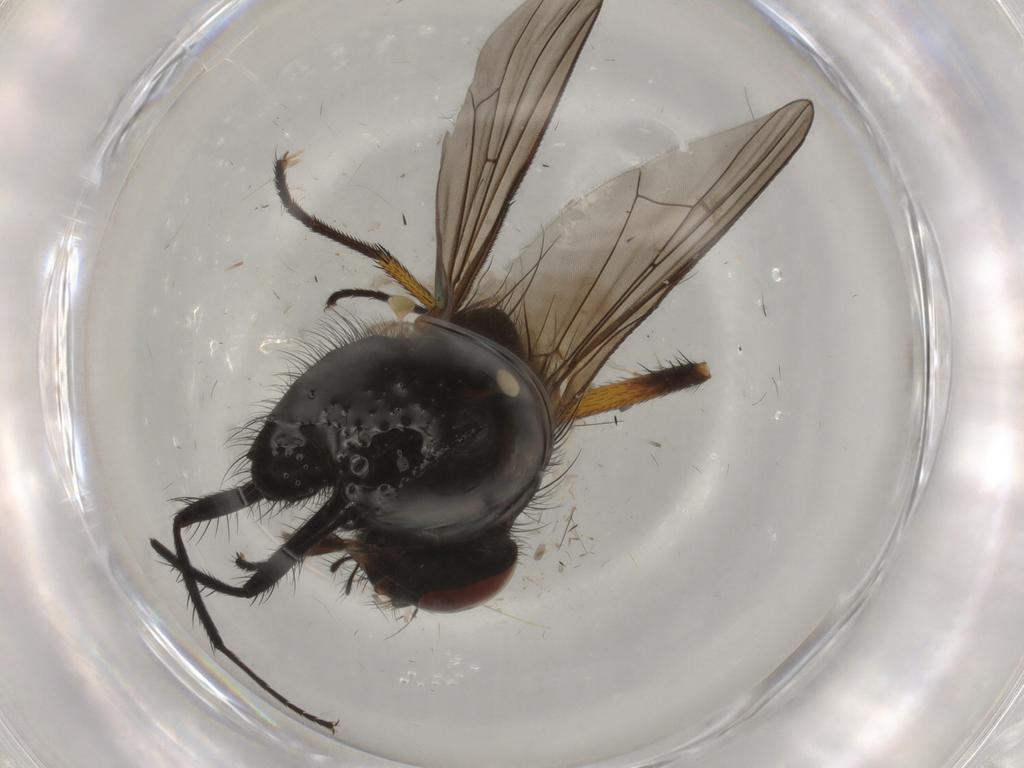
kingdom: Animalia
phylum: Arthropoda
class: Insecta
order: Diptera
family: Anthomyiidae
